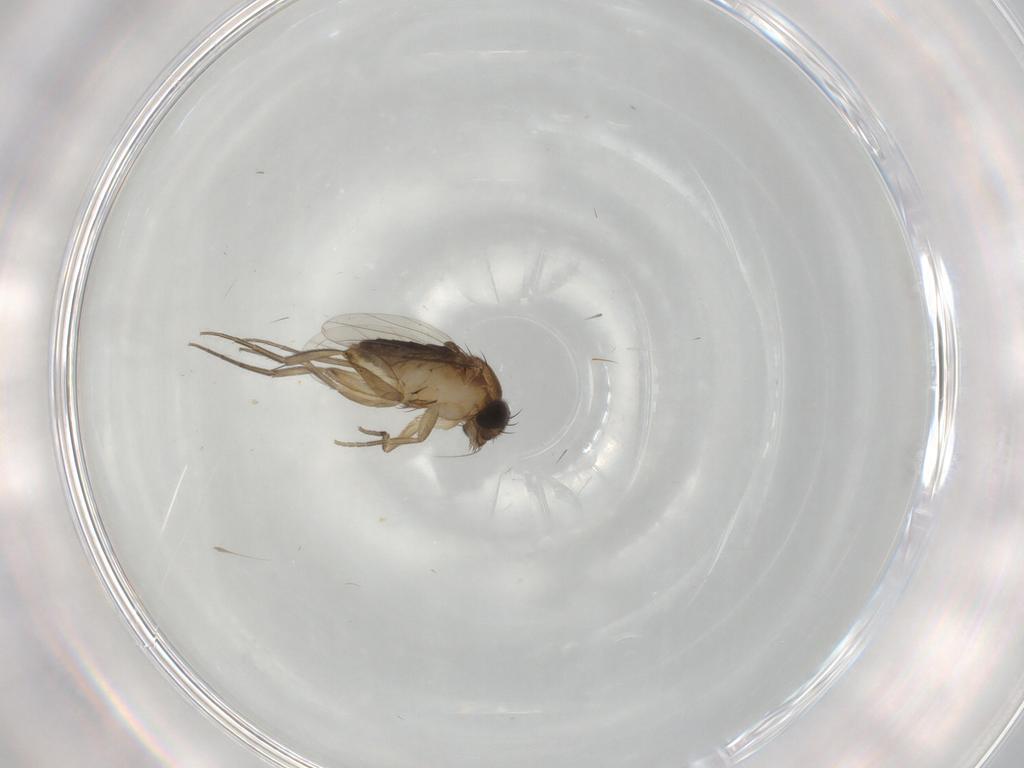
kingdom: Animalia
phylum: Arthropoda
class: Insecta
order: Diptera
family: Phoridae
